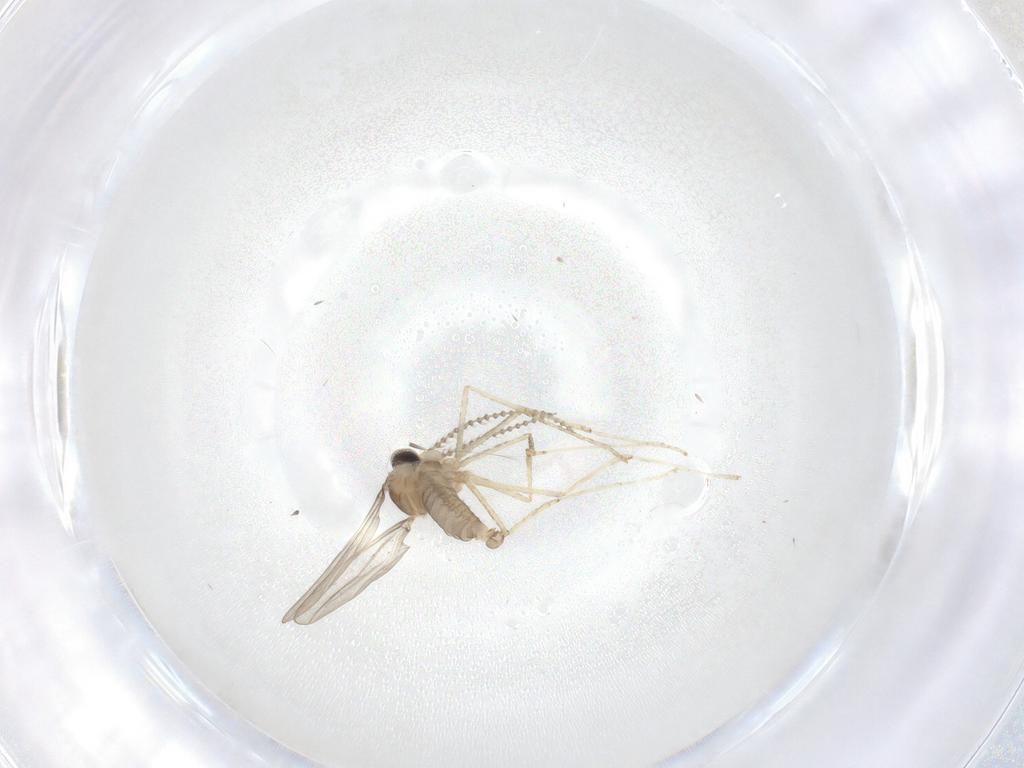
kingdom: Animalia
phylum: Arthropoda
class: Insecta
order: Diptera
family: Cecidomyiidae
